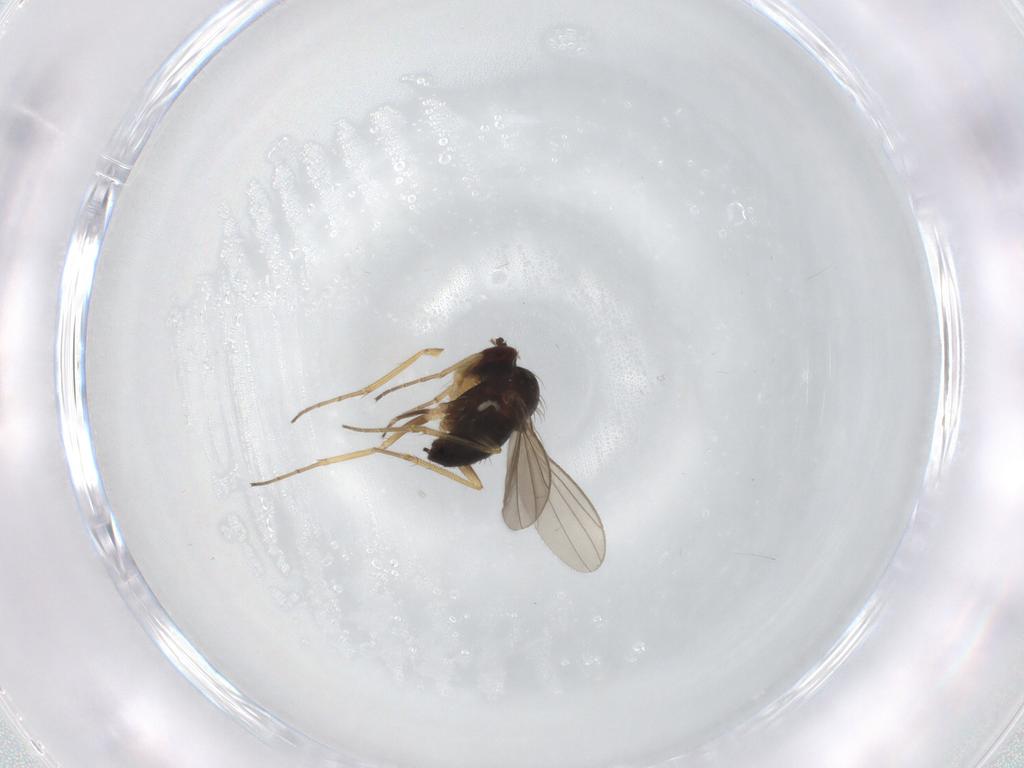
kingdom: Animalia
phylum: Arthropoda
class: Insecta
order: Diptera
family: Dolichopodidae
